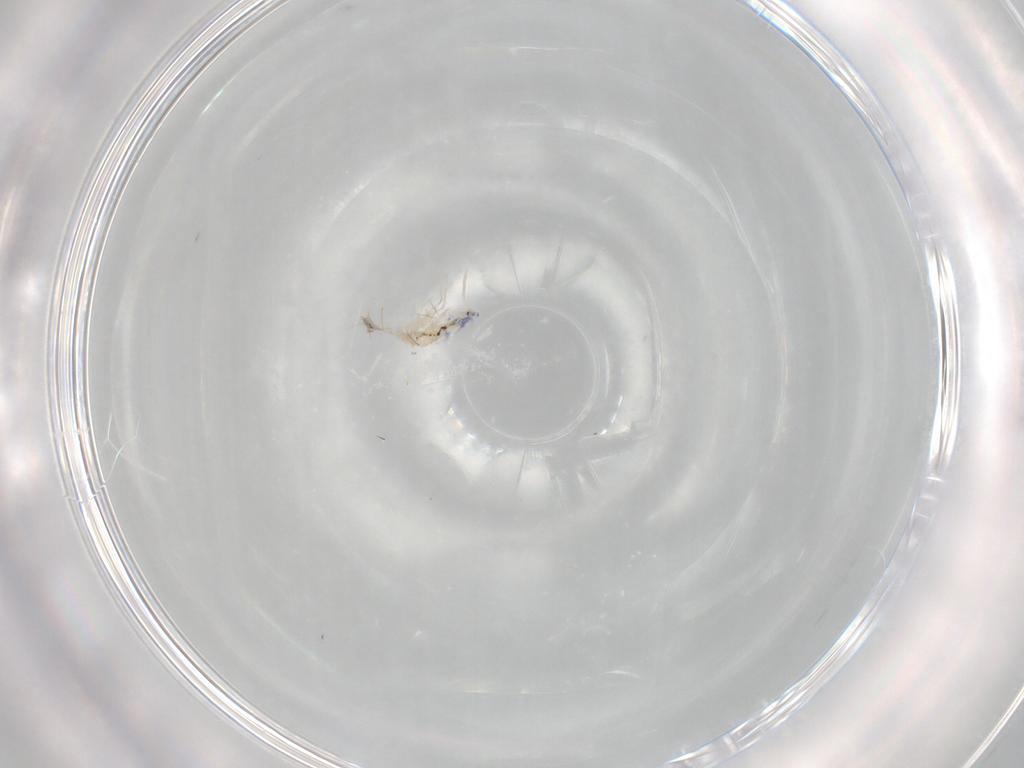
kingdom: Animalia
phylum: Arthropoda
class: Collembola
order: Entomobryomorpha
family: Entomobryidae
